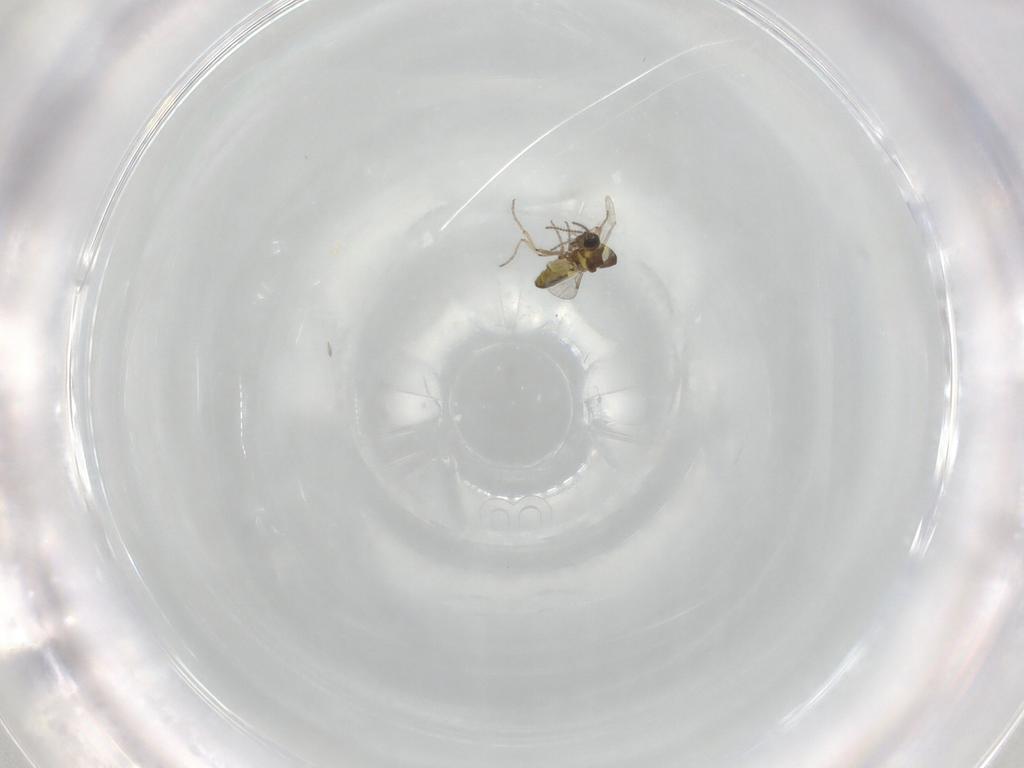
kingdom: Animalia
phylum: Arthropoda
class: Insecta
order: Diptera
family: Ceratopogonidae
